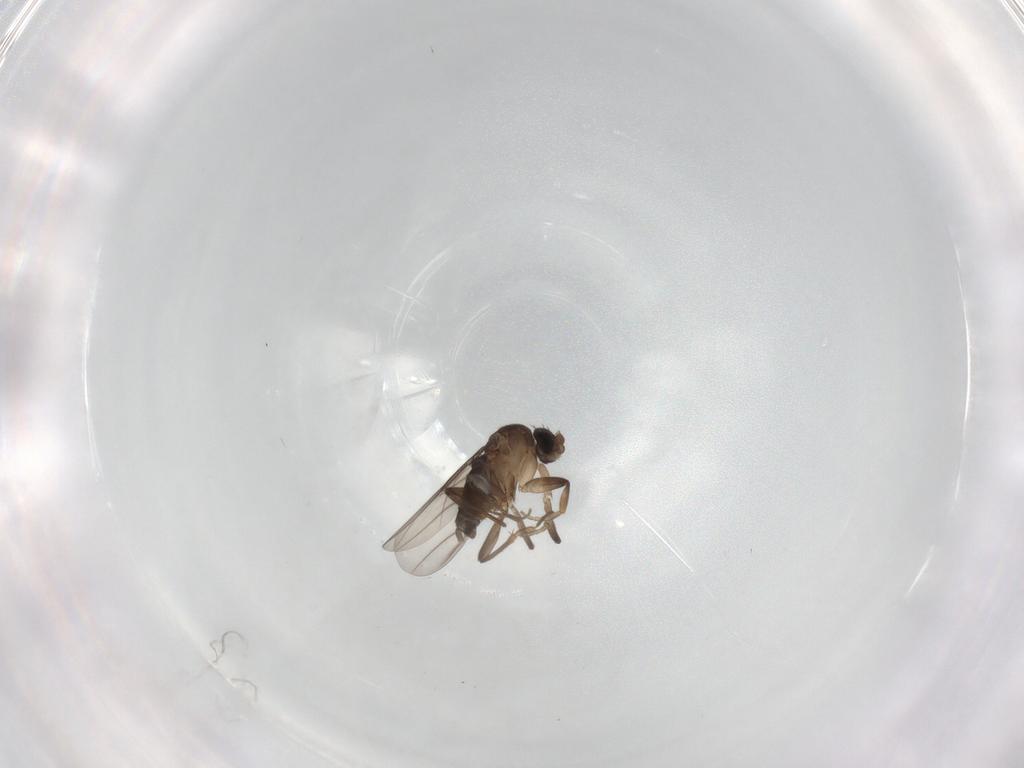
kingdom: Animalia
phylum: Arthropoda
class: Insecta
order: Diptera
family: Phoridae
